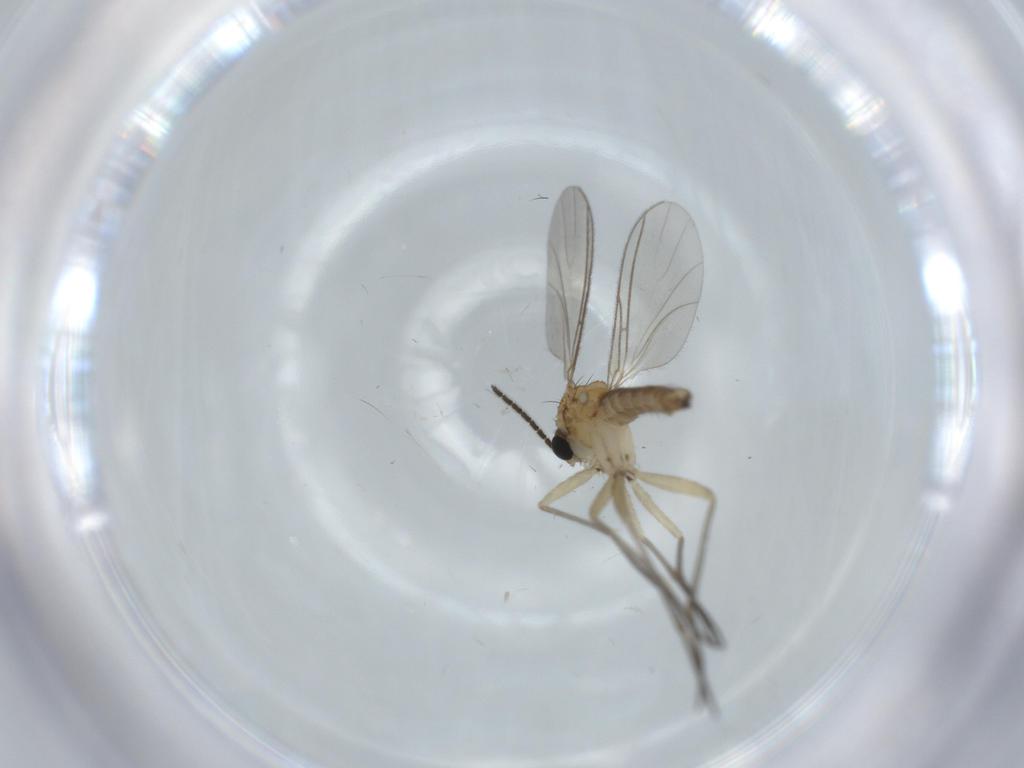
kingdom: Animalia
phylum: Arthropoda
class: Insecta
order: Diptera
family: Sciaridae
